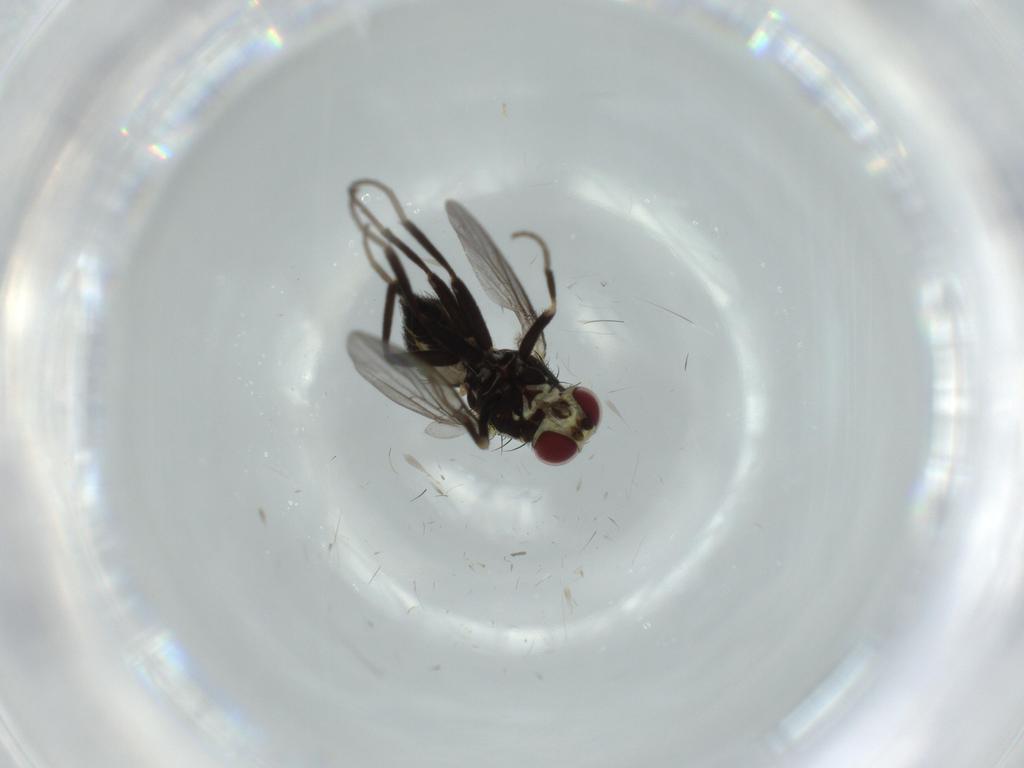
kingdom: Animalia
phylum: Arthropoda
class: Insecta
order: Diptera
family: Agromyzidae
